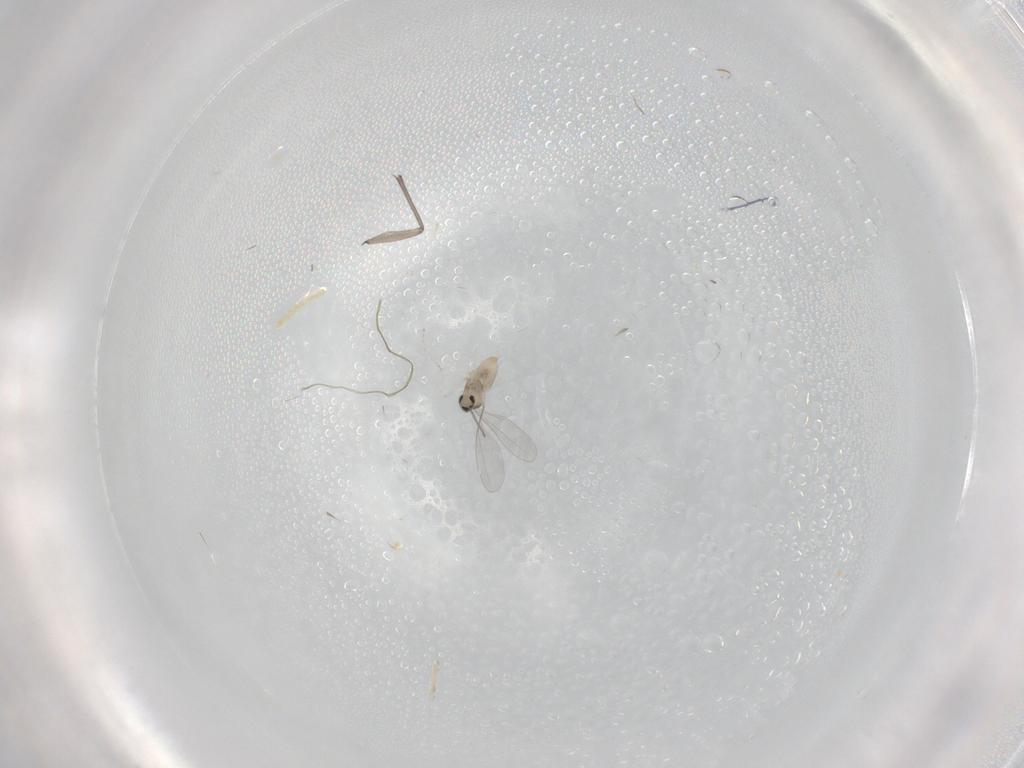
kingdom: Animalia
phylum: Arthropoda
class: Insecta
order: Diptera
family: Cecidomyiidae
